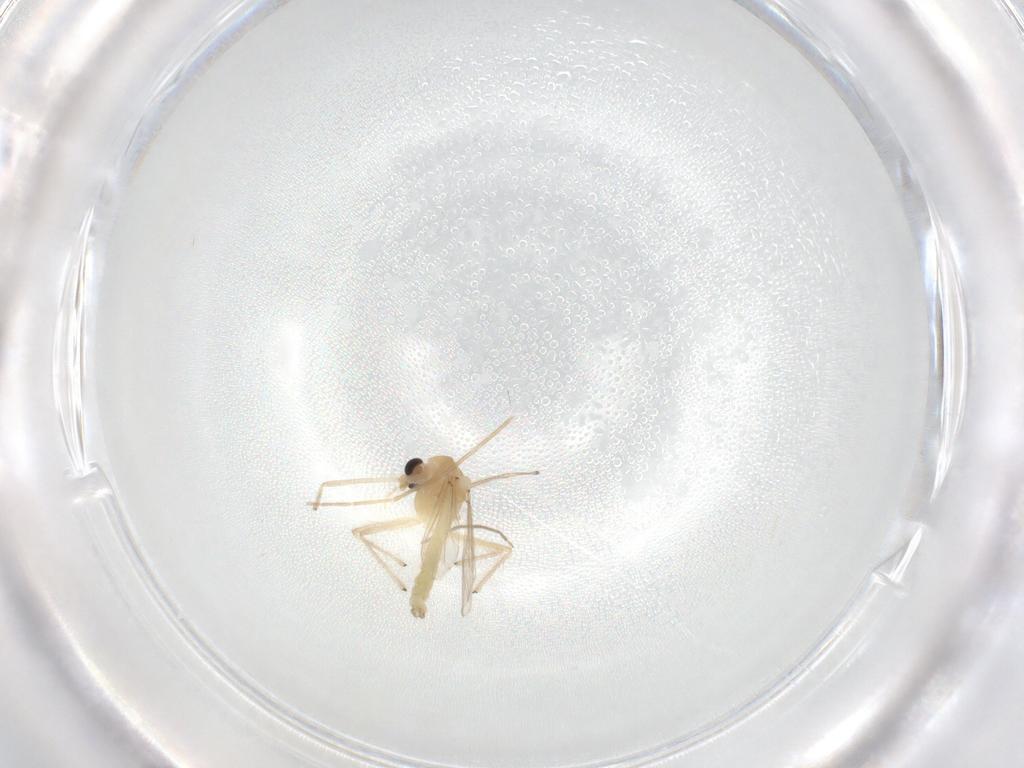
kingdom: Animalia
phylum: Arthropoda
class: Insecta
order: Diptera
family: Chironomidae
